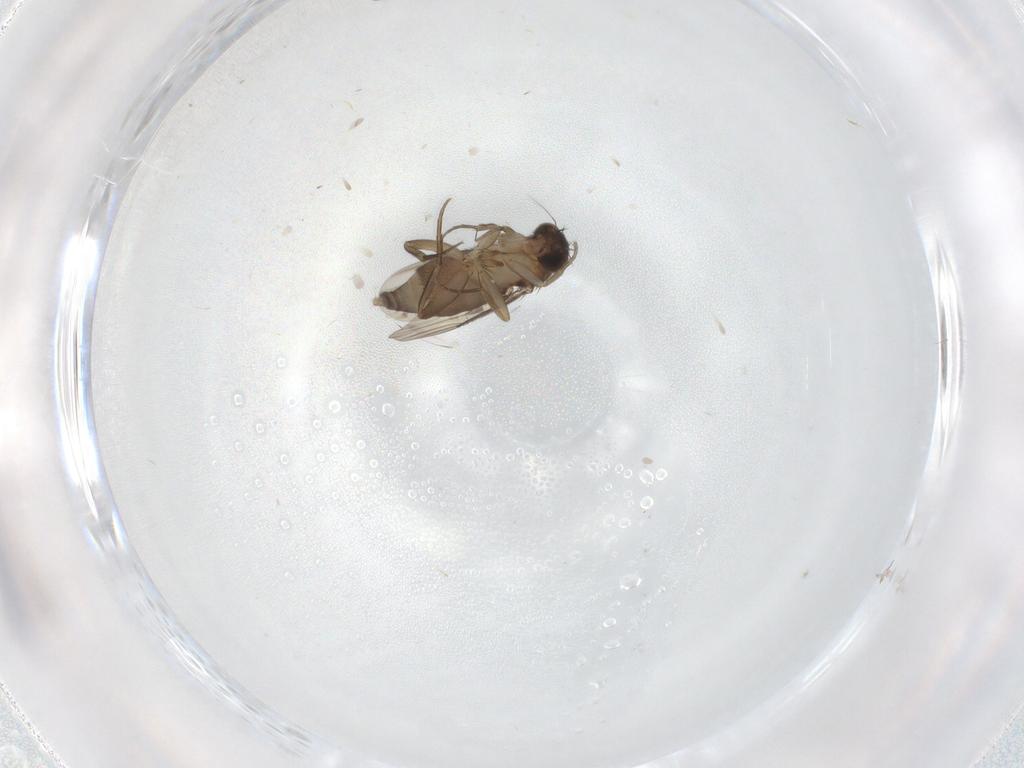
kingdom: Animalia
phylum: Arthropoda
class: Insecta
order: Diptera
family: Phoridae
